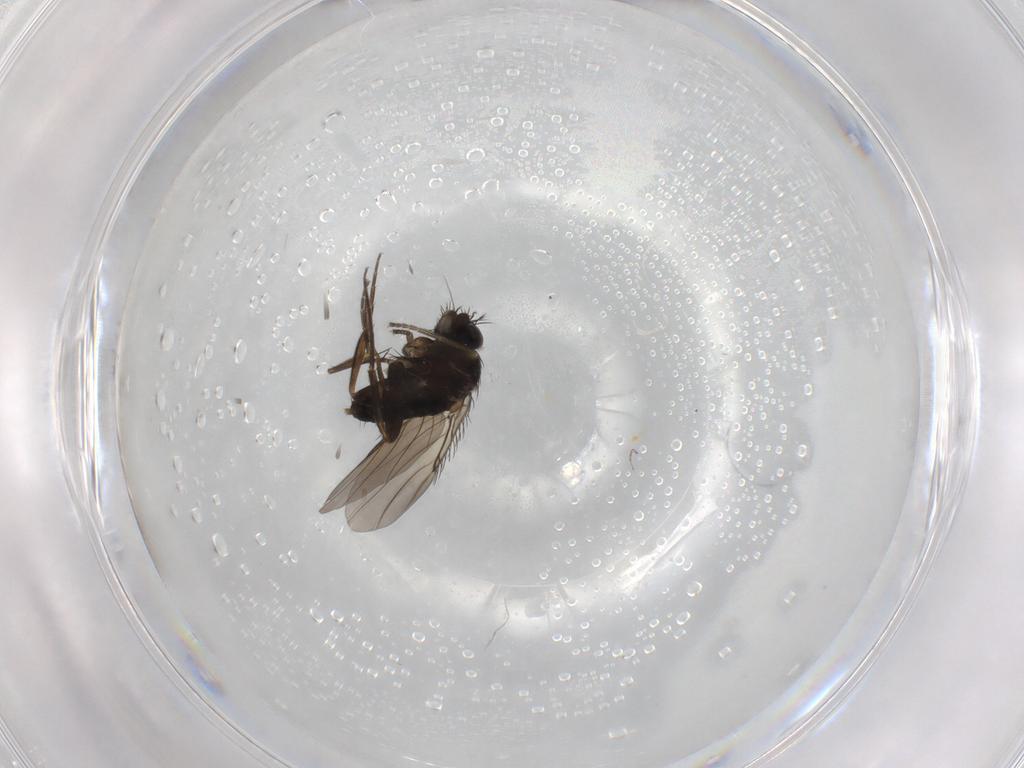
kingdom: Animalia
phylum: Arthropoda
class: Insecta
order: Diptera
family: Phoridae
